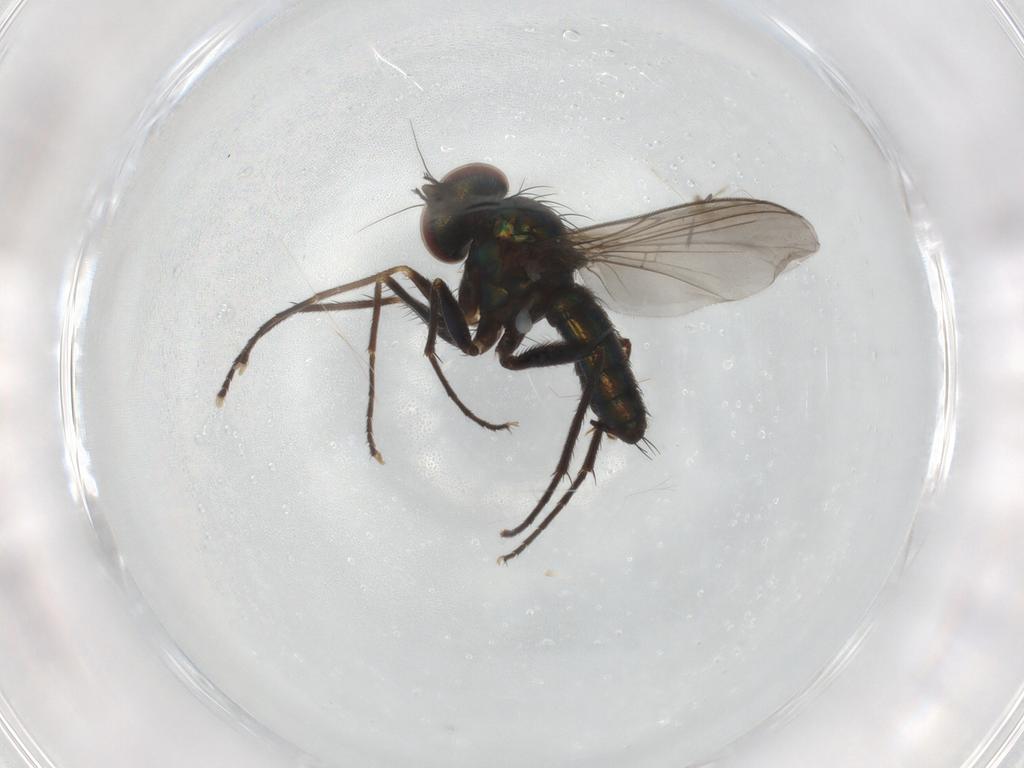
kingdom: Animalia
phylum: Arthropoda
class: Insecta
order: Diptera
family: Dolichopodidae
